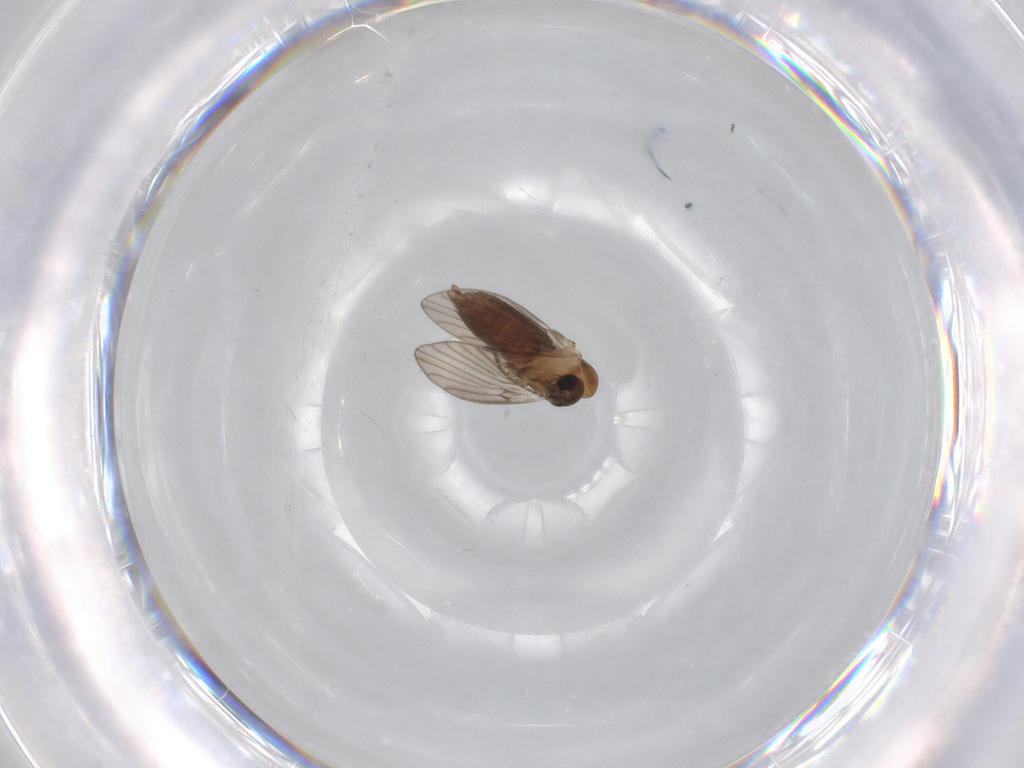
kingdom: Animalia
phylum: Arthropoda
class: Insecta
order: Diptera
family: Psychodidae
